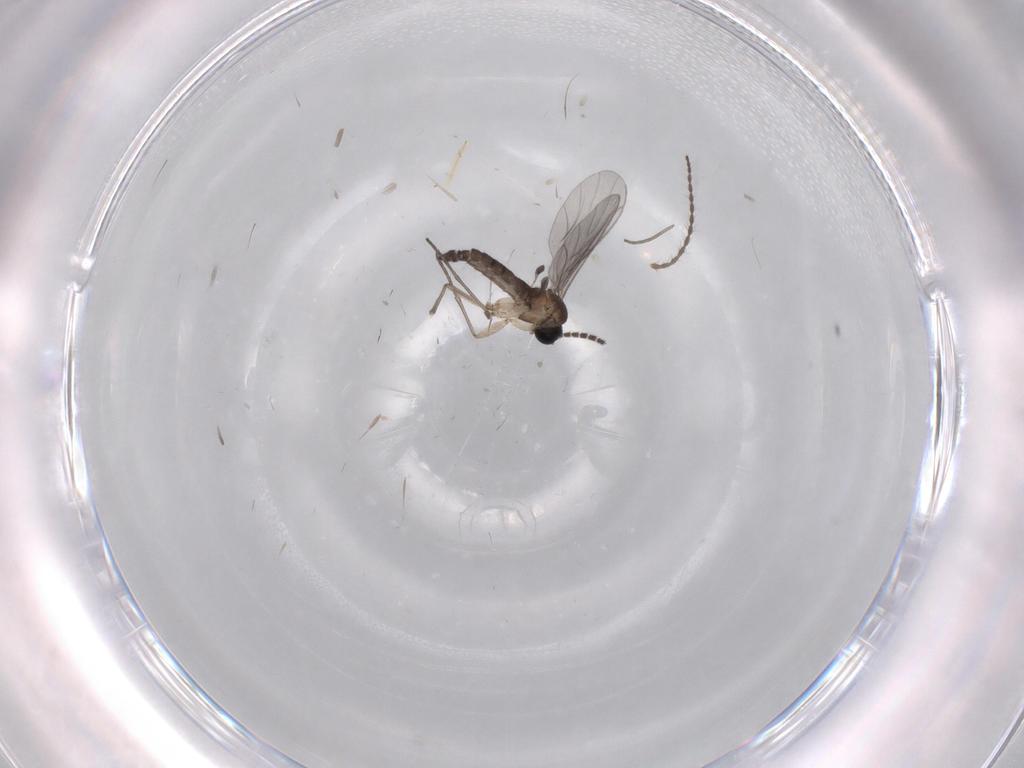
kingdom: Animalia
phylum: Arthropoda
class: Insecta
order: Diptera
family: Sciaridae
